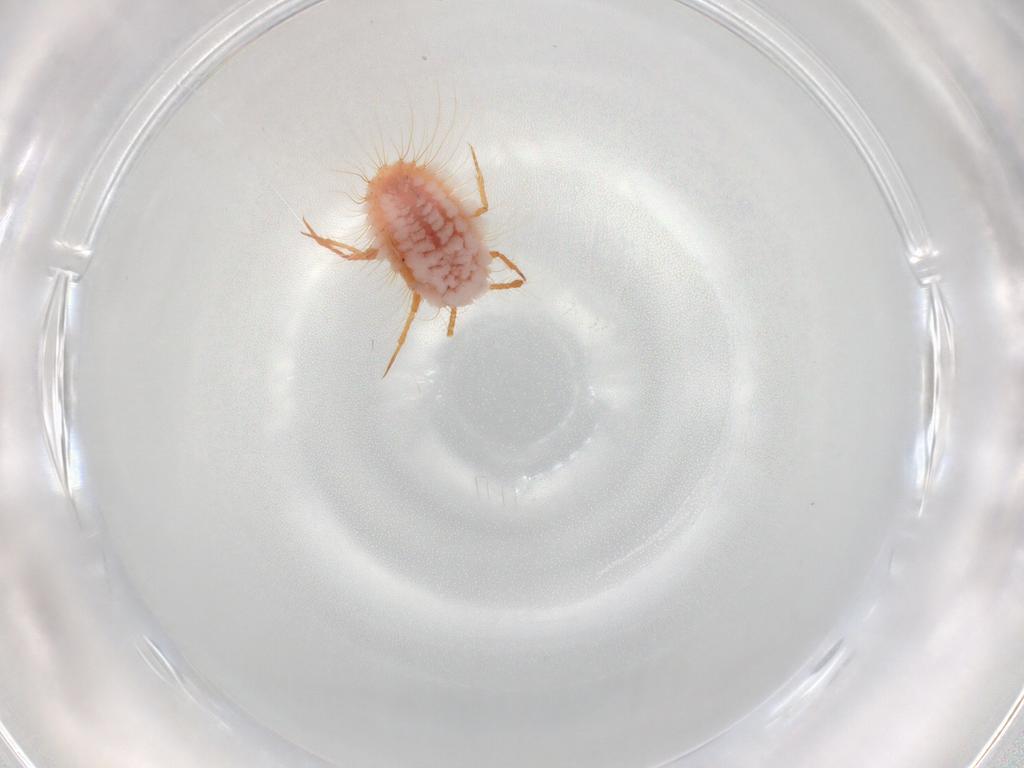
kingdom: Animalia
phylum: Arthropoda
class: Insecta
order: Hemiptera
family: Coccoidea_incertae_sedis
